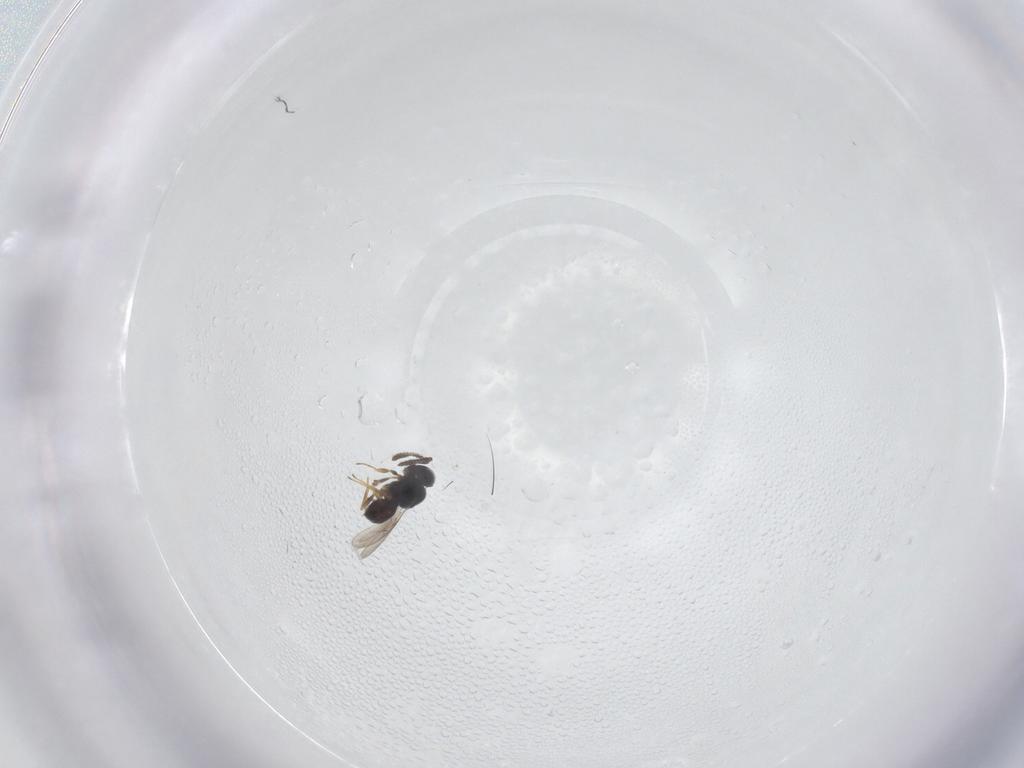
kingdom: Animalia
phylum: Arthropoda
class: Insecta
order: Hymenoptera
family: Scelionidae
